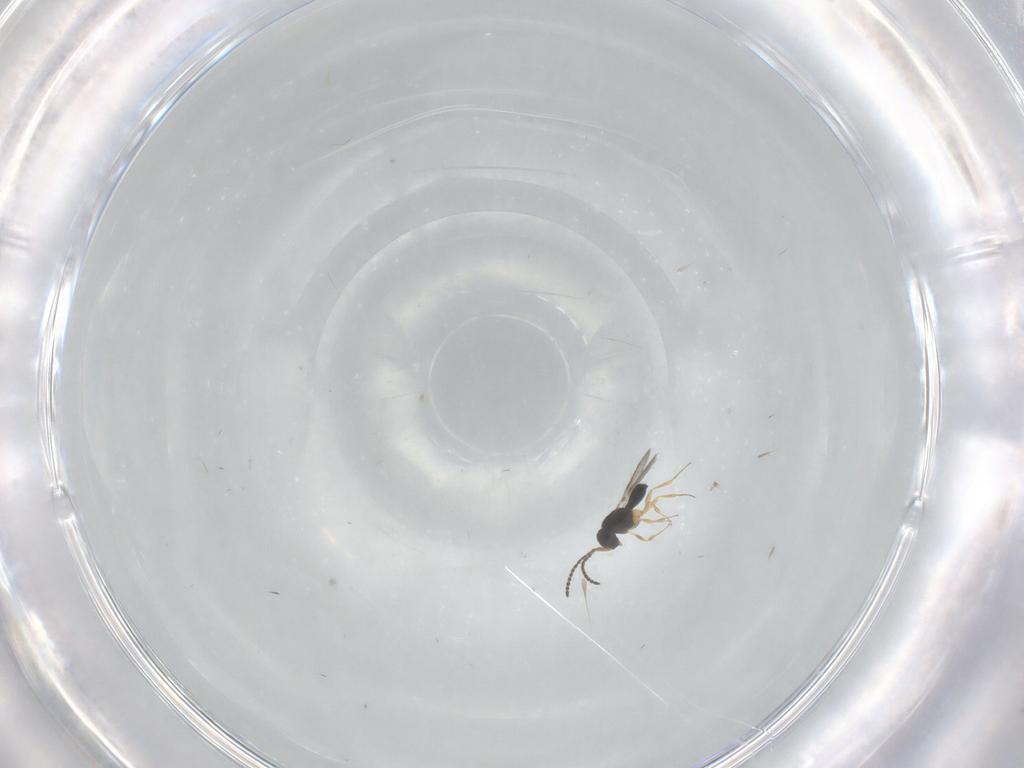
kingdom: Animalia
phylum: Arthropoda
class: Insecta
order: Hymenoptera
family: Scelionidae
